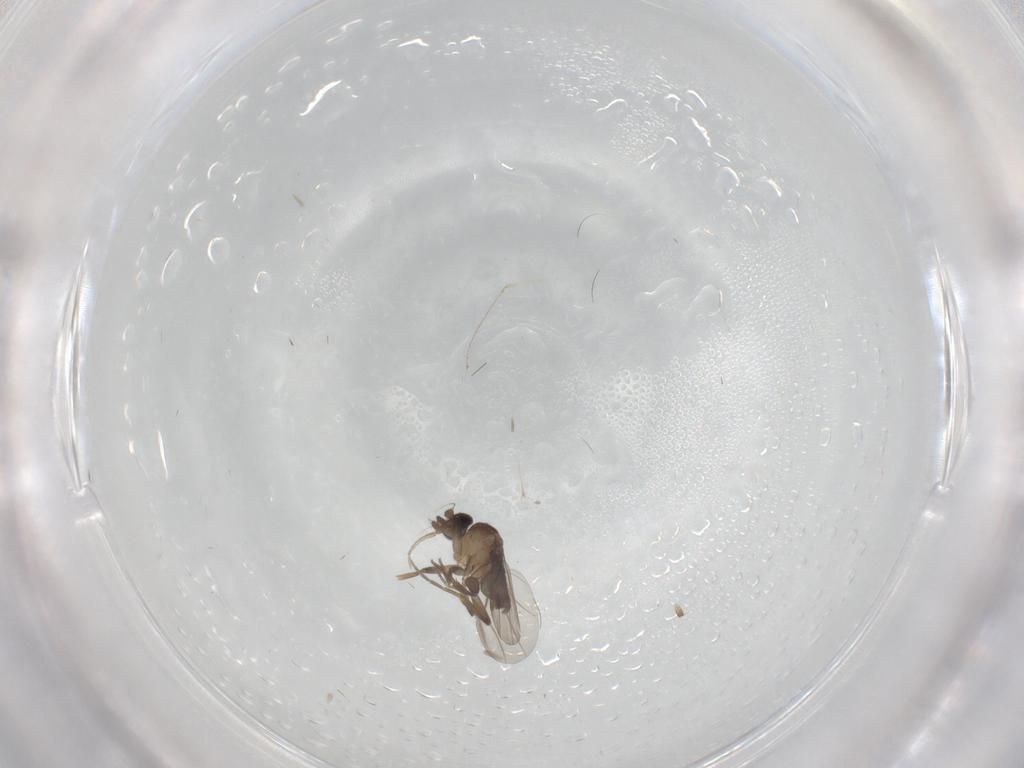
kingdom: Animalia
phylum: Arthropoda
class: Insecta
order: Diptera
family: Phoridae
